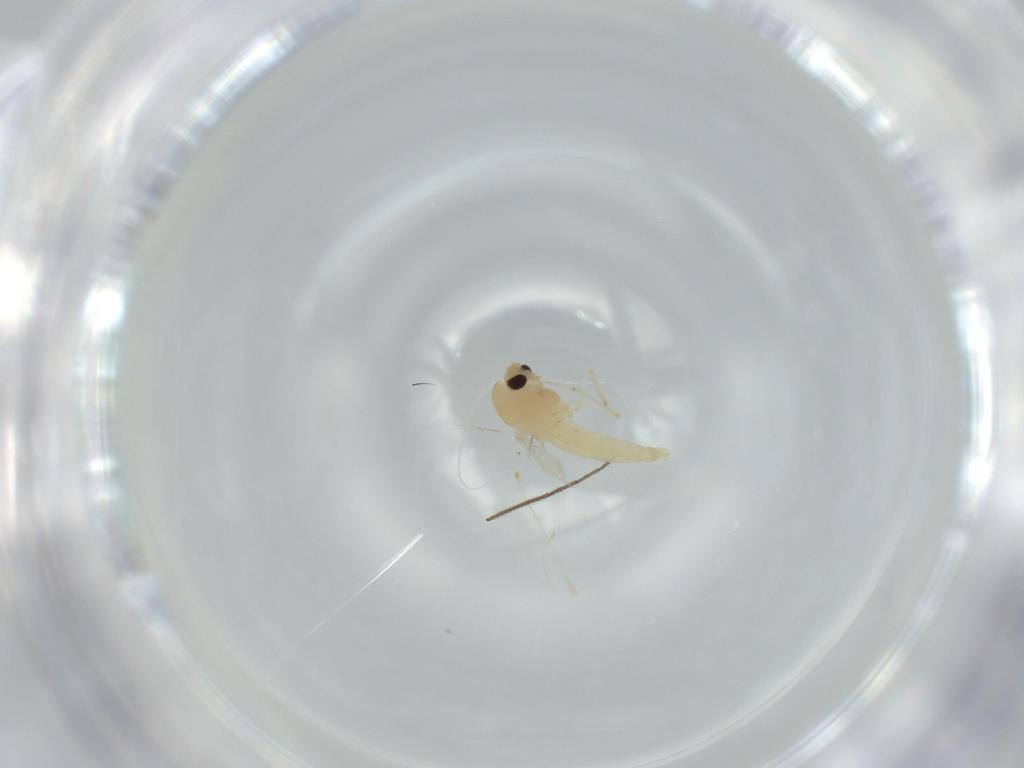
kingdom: Animalia
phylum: Arthropoda
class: Insecta
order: Diptera
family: Chironomidae
